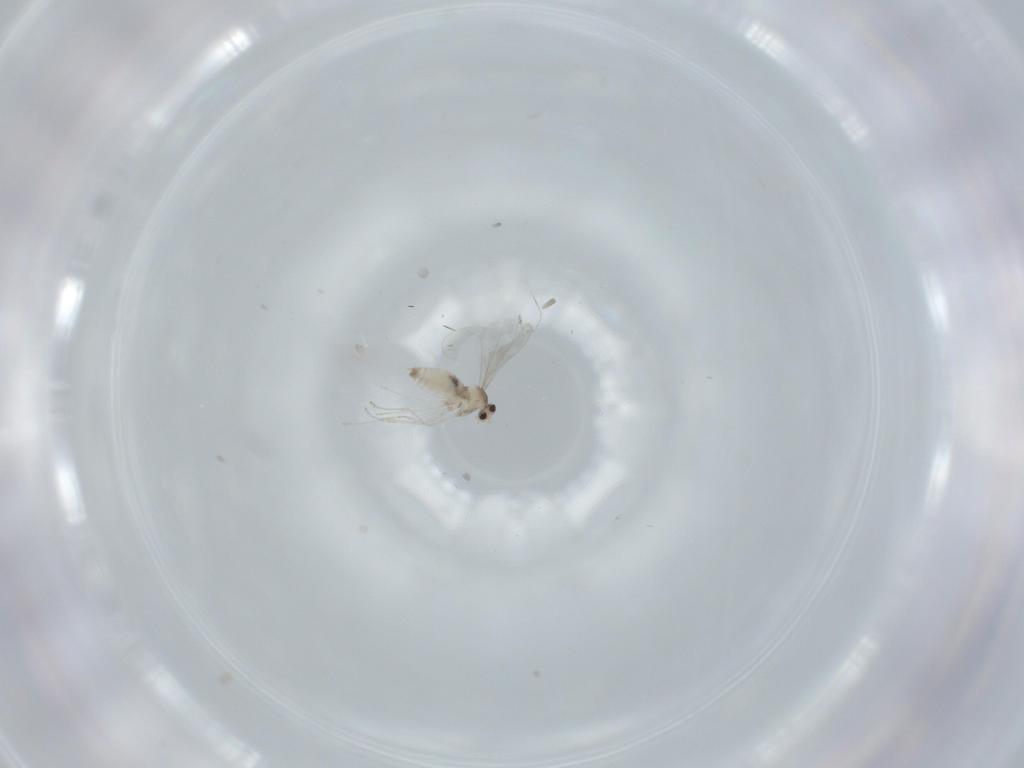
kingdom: Animalia
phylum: Arthropoda
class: Insecta
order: Diptera
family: Cecidomyiidae
